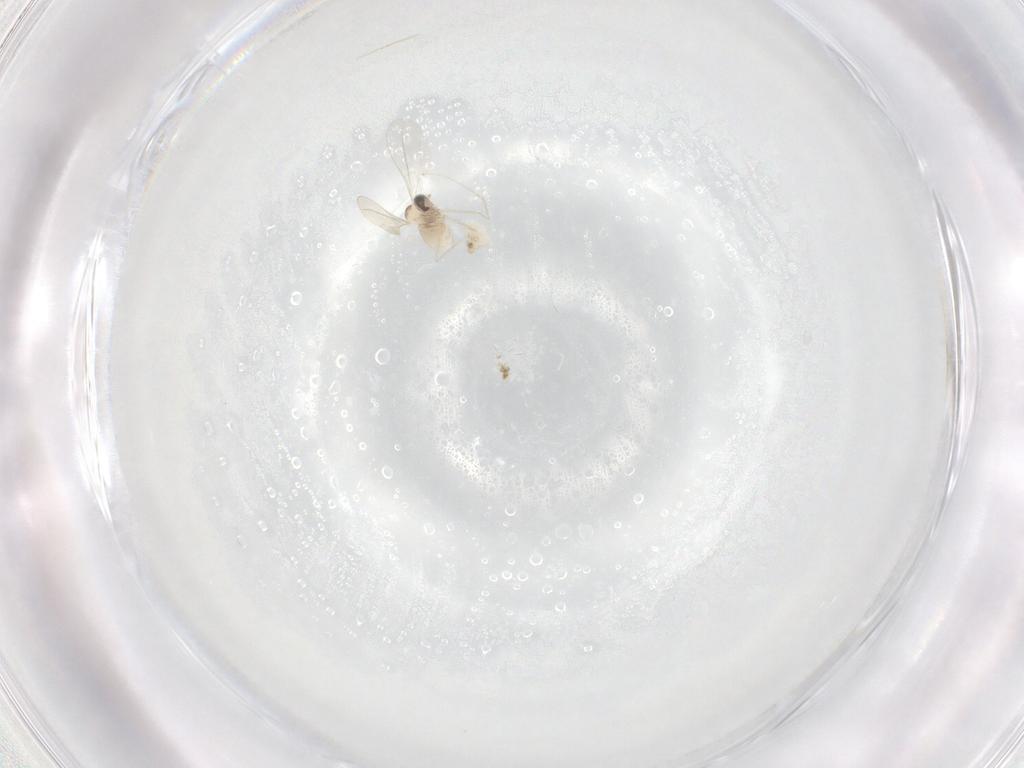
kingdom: Animalia
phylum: Arthropoda
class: Insecta
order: Diptera
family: Cecidomyiidae
